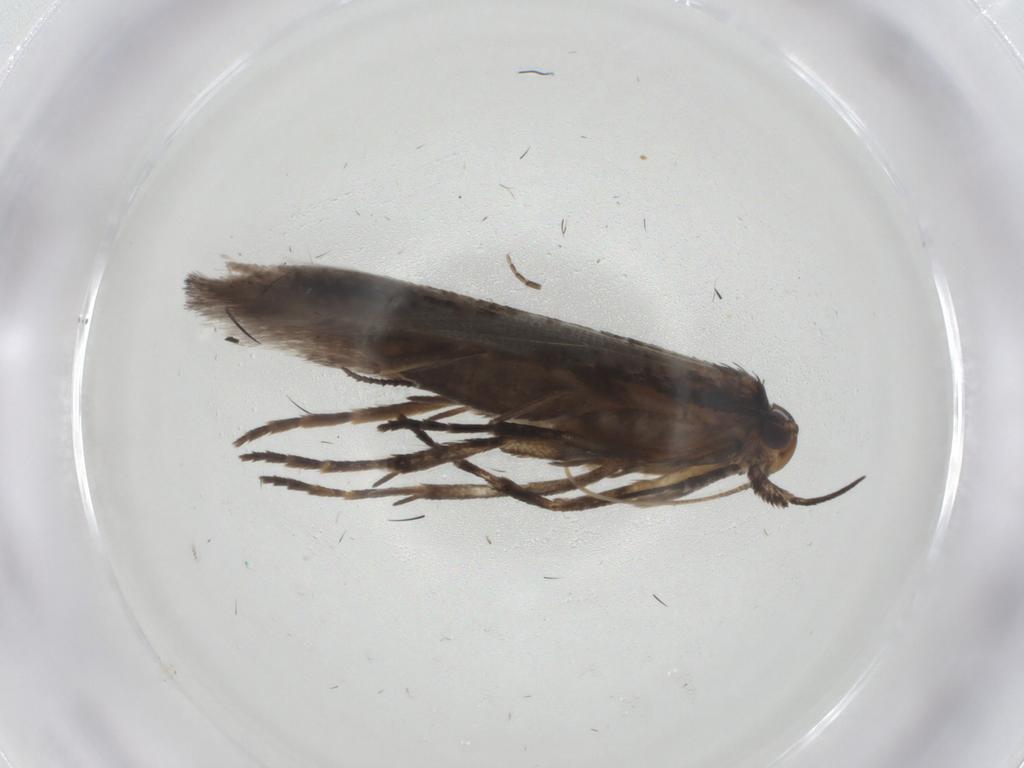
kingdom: Animalia
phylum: Arthropoda
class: Insecta
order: Lepidoptera
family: Gelechiidae
